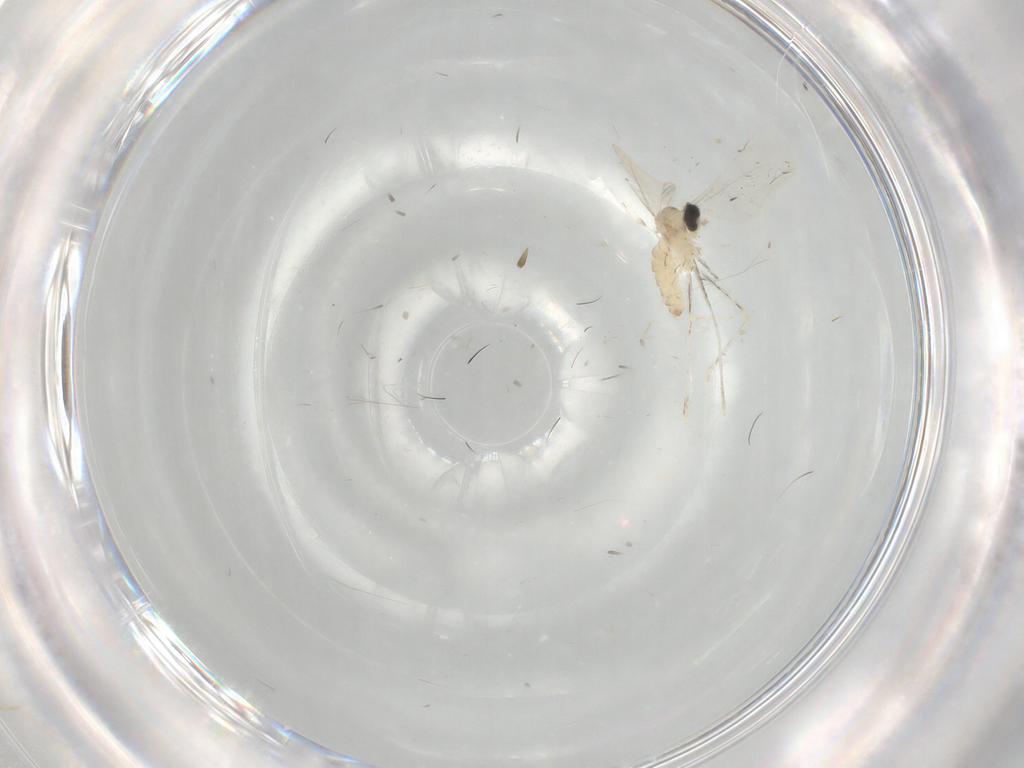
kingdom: Animalia
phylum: Arthropoda
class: Insecta
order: Diptera
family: Cecidomyiidae
